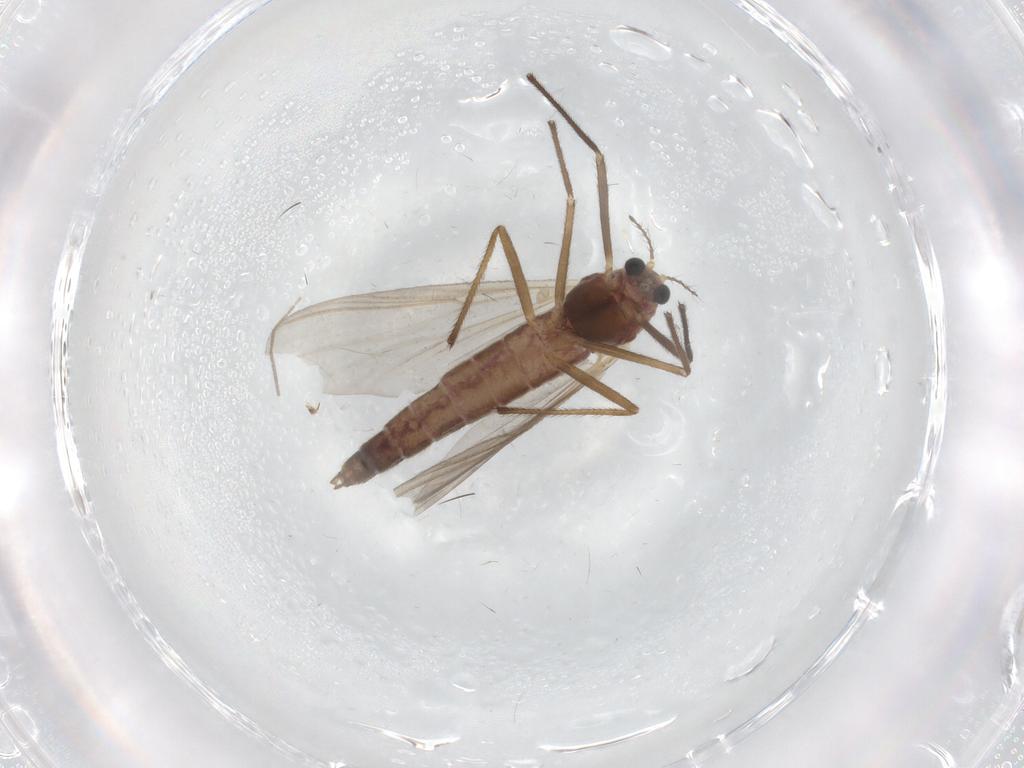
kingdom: Animalia
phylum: Arthropoda
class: Insecta
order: Diptera
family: Chironomidae
